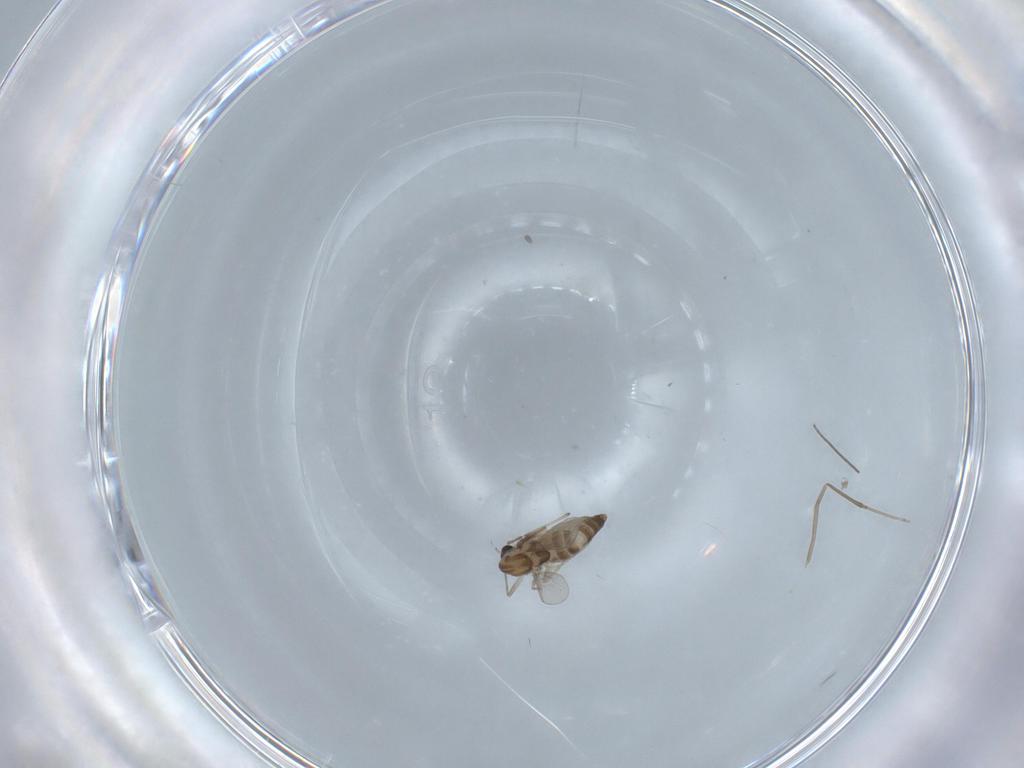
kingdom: Animalia
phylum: Arthropoda
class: Insecta
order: Diptera
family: Chironomidae
